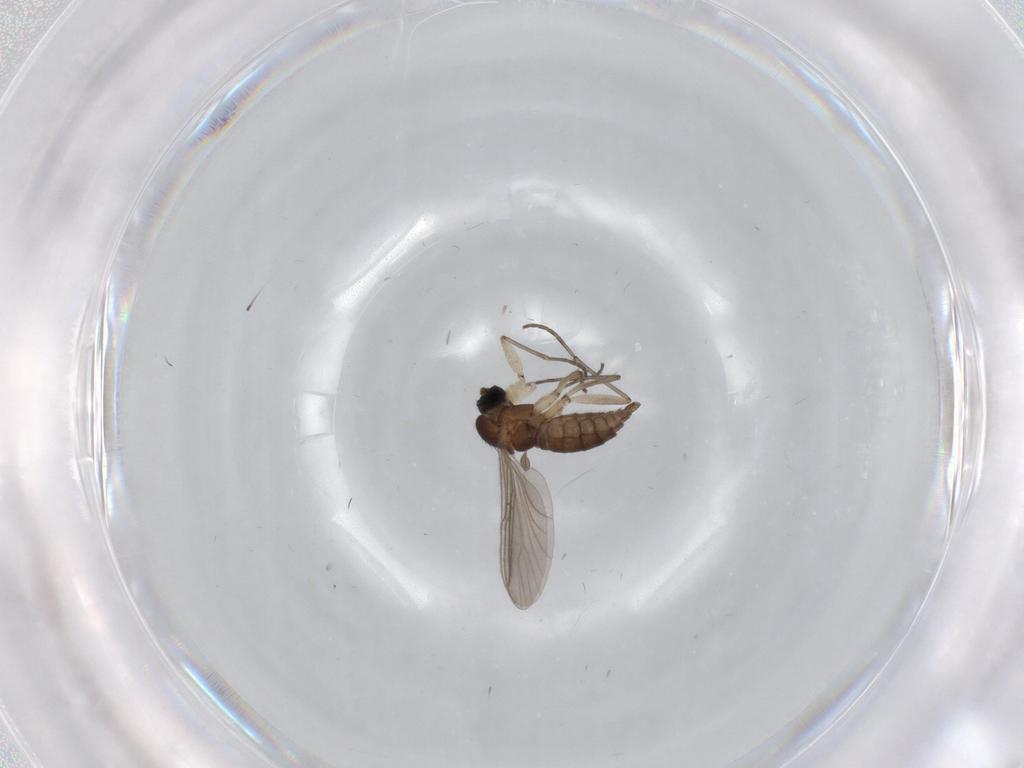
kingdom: Animalia
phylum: Arthropoda
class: Insecta
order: Diptera
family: Sciaridae
